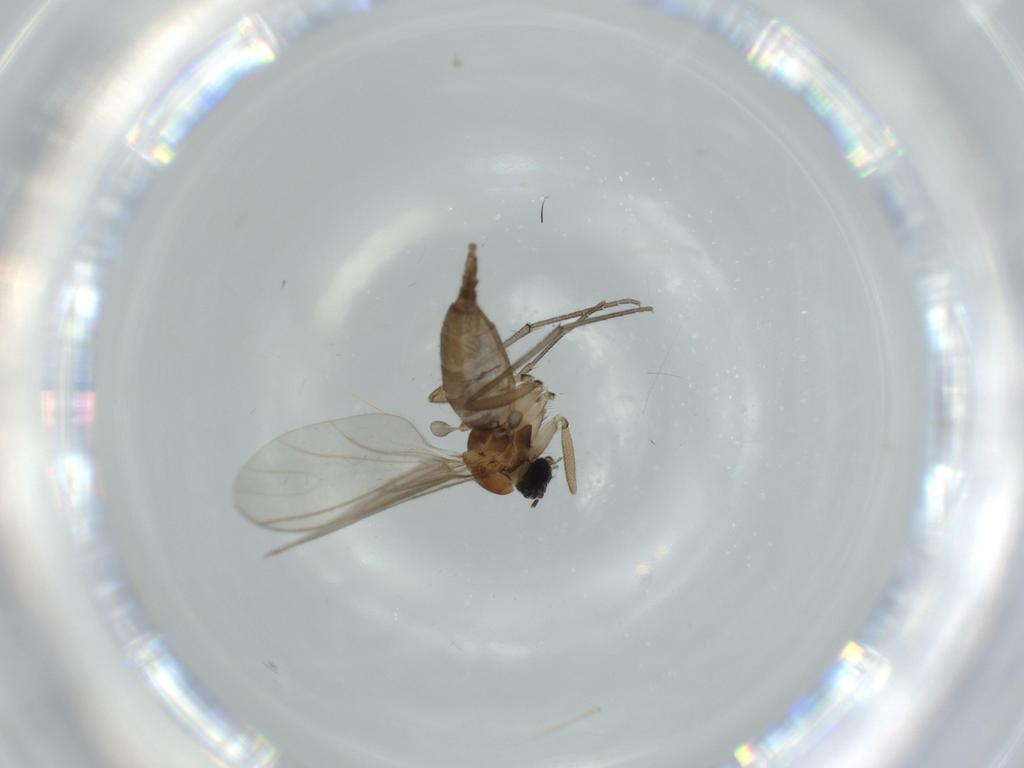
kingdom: Animalia
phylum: Arthropoda
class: Insecta
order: Diptera
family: Sciaridae
